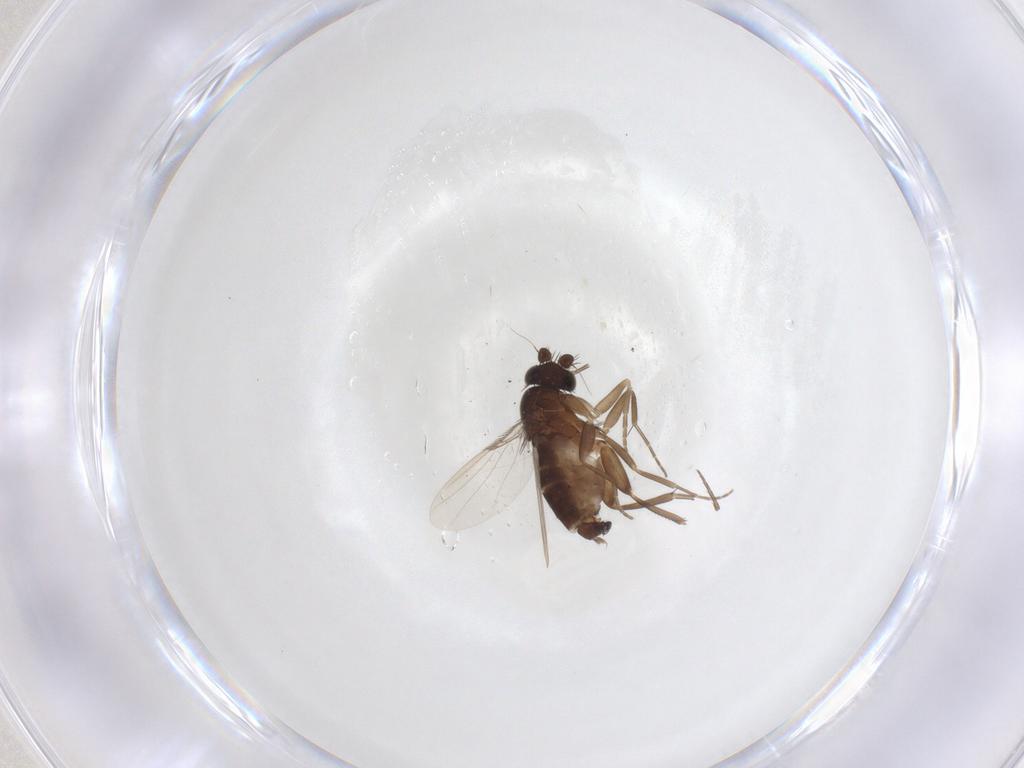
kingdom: Animalia
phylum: Arthropoda
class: Insecta
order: Diptera
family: Phoridae
